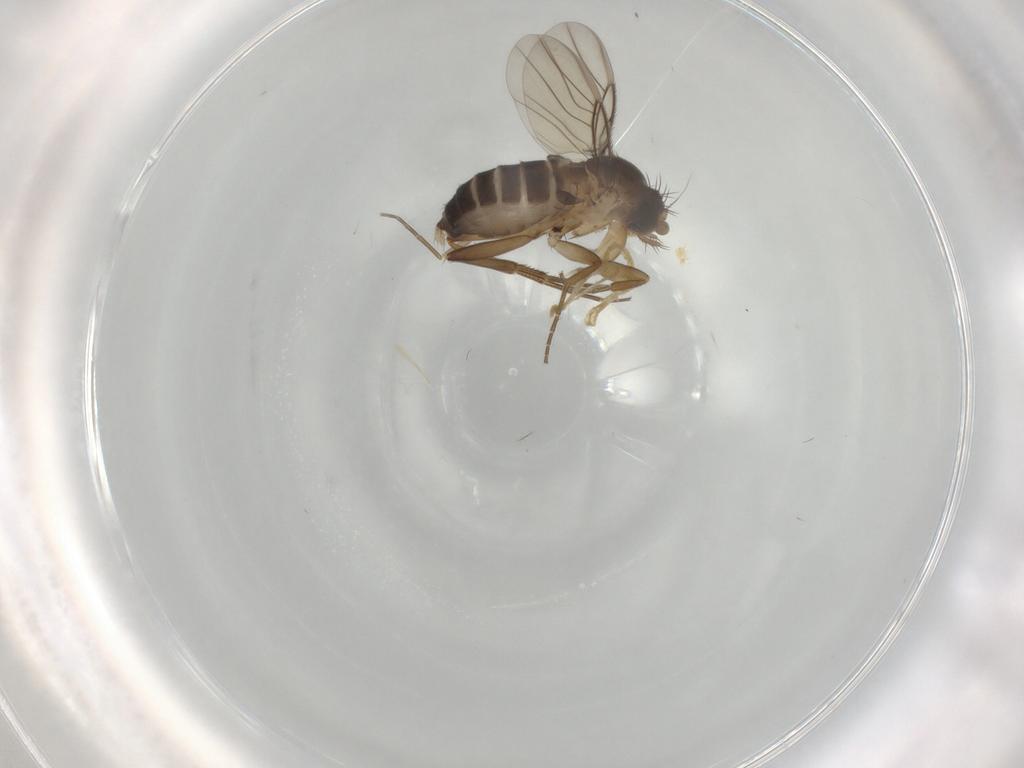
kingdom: Animalia
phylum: Arthropoda
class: Insecta
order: Diptera
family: Phoridae
